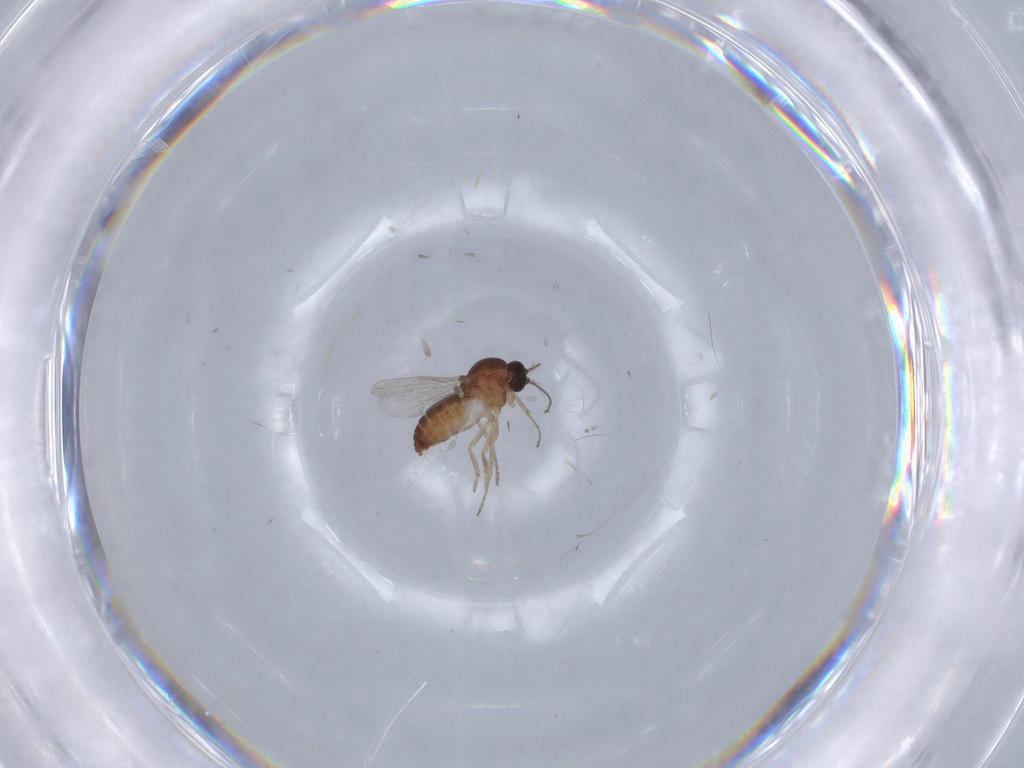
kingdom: Animalia
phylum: Arthropoda
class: Insecta
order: Diptera
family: Ceratopogonidae
